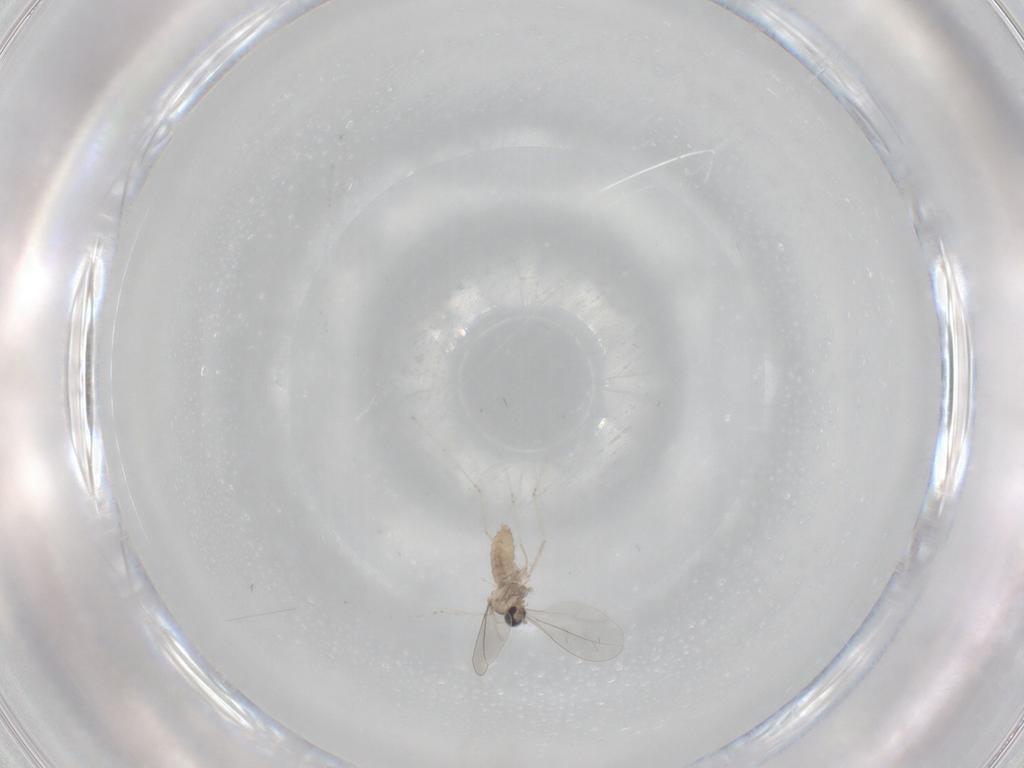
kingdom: Animalia
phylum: Arthropoda
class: Insecta
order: Diptera
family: Cecidomyiidae
